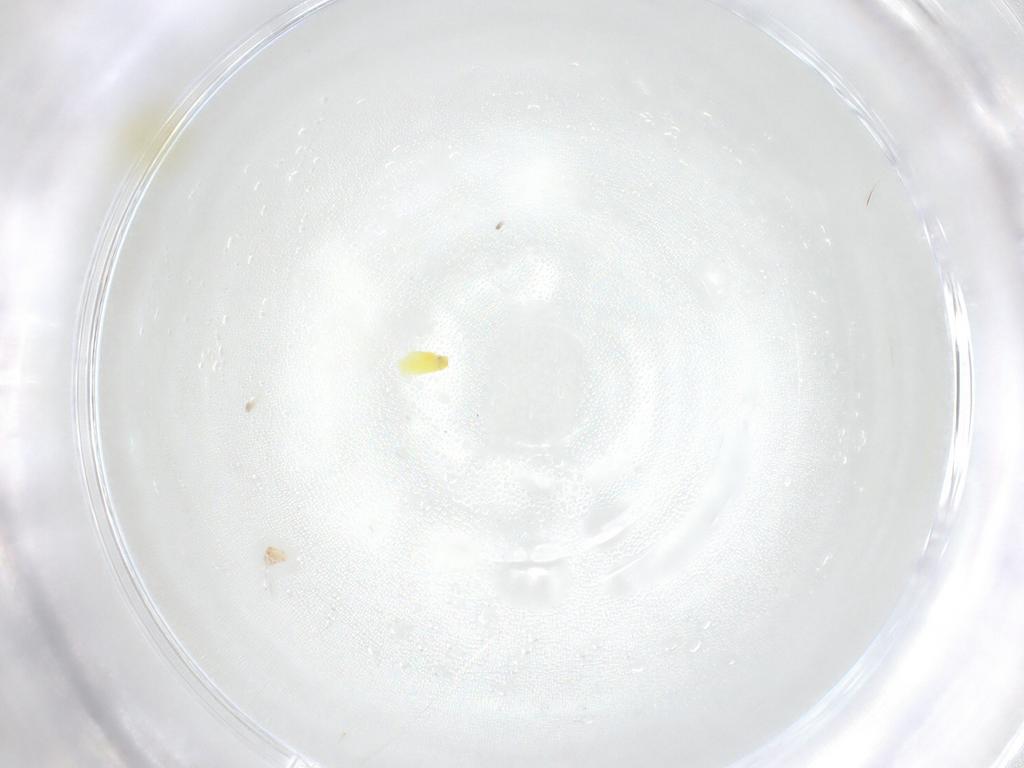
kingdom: Animalia
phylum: Arthropoda
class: Insecta
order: Hemiptera
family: Aleyrodidae
